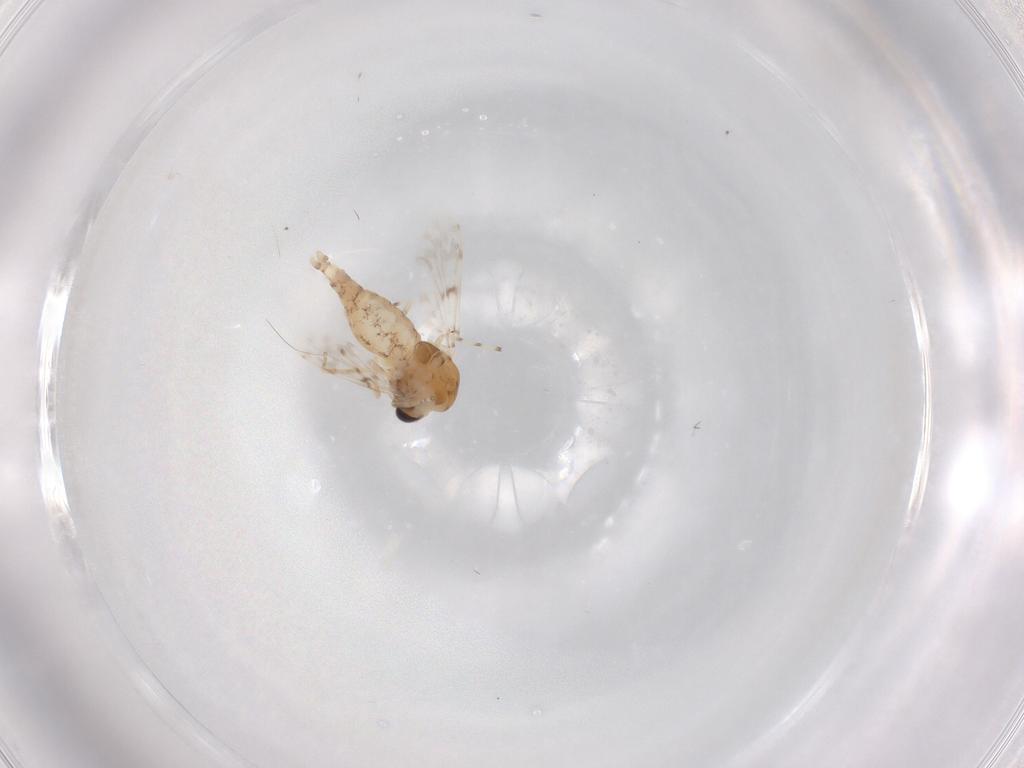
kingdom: Animalia
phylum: Arthropoda
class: Insecta
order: Diptera
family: Chironomidae
